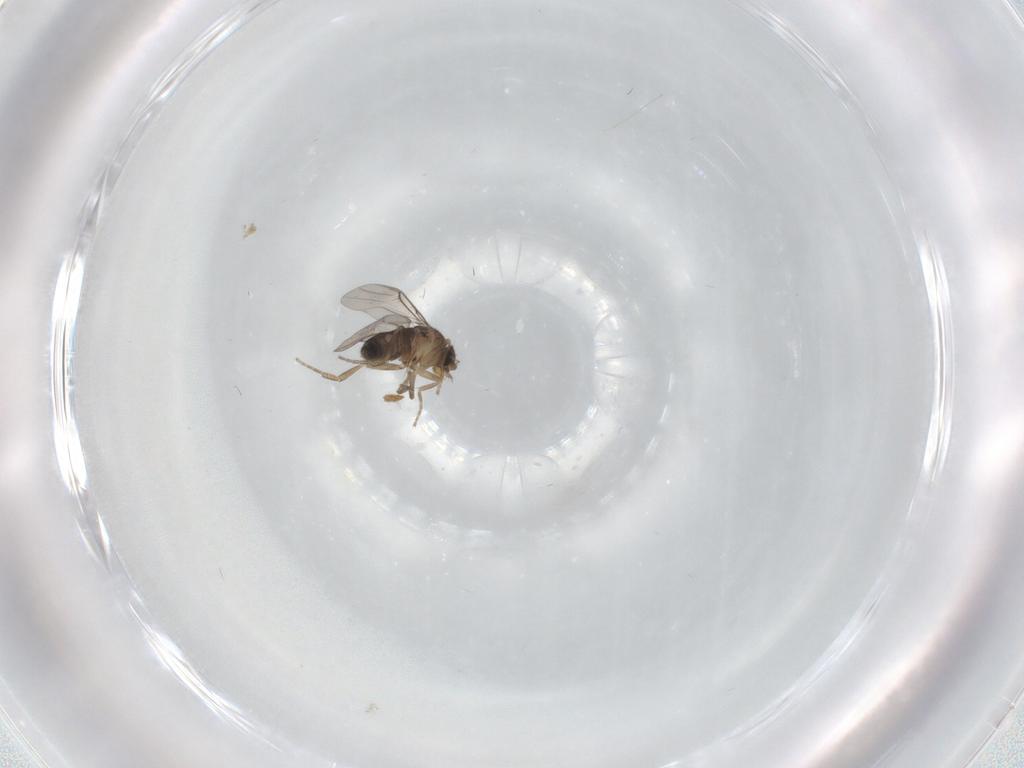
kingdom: Animalia
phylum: Arthropoda
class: Insecta
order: Diptera
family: Phoridae
